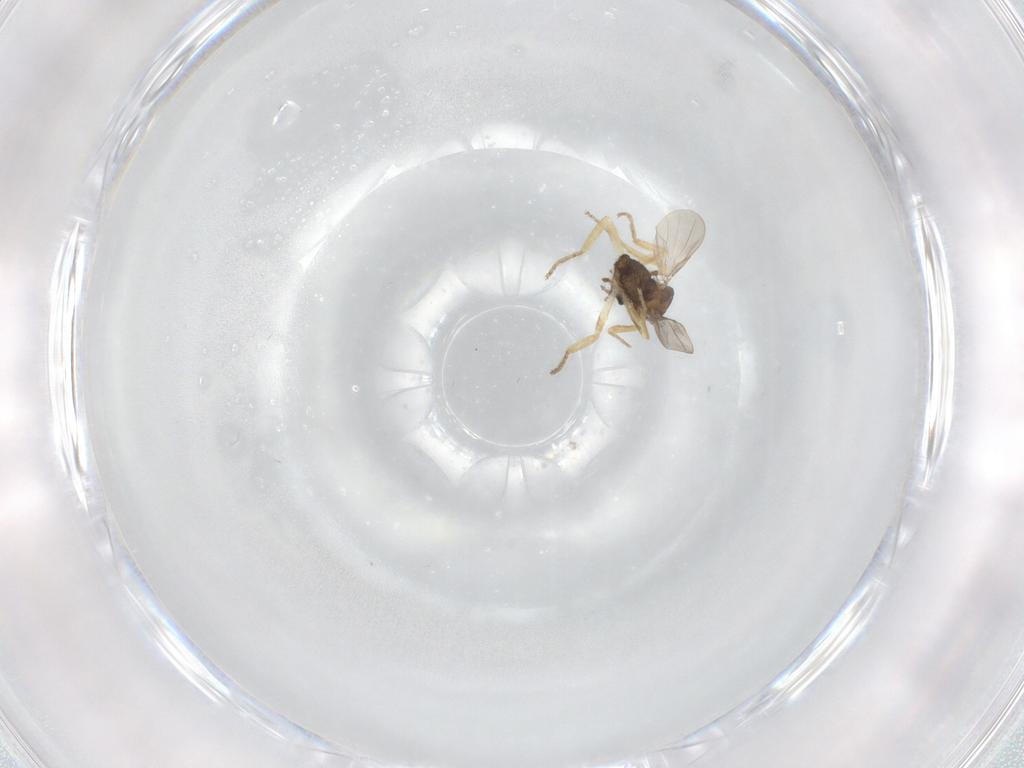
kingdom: Animalia
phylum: Arthropoda
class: Insecta
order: Diptera
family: Ceratopogonidae
